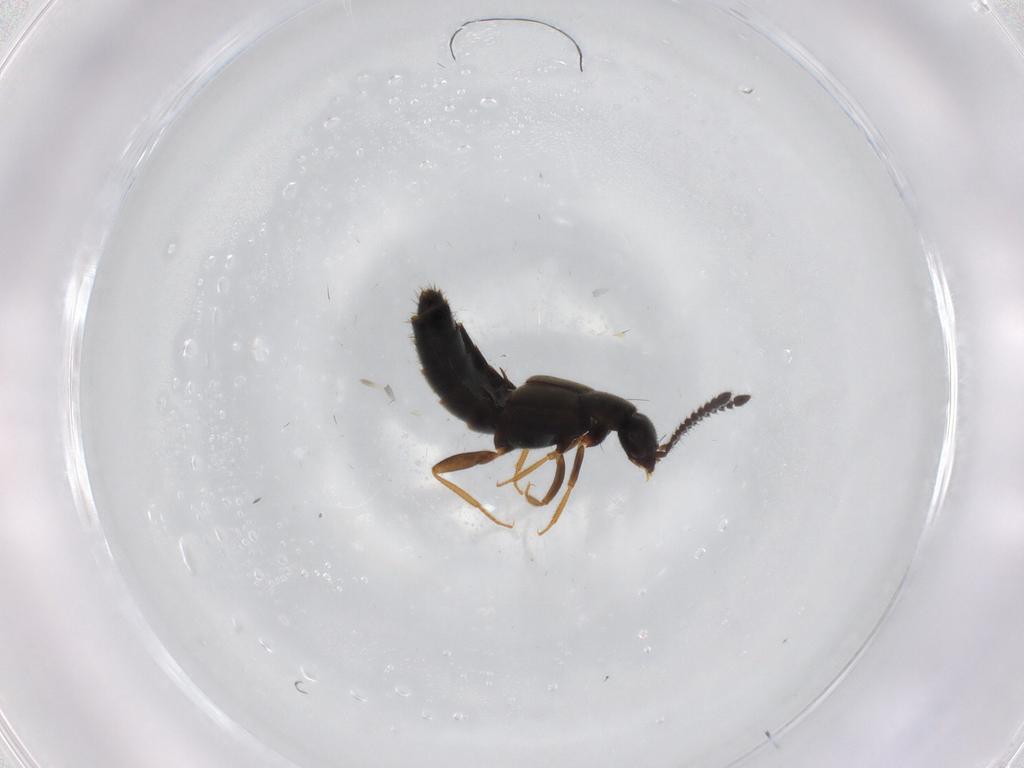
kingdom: Animalia
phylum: Arthropoda
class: Insecta
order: Coleoptera
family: Staphylinidae
